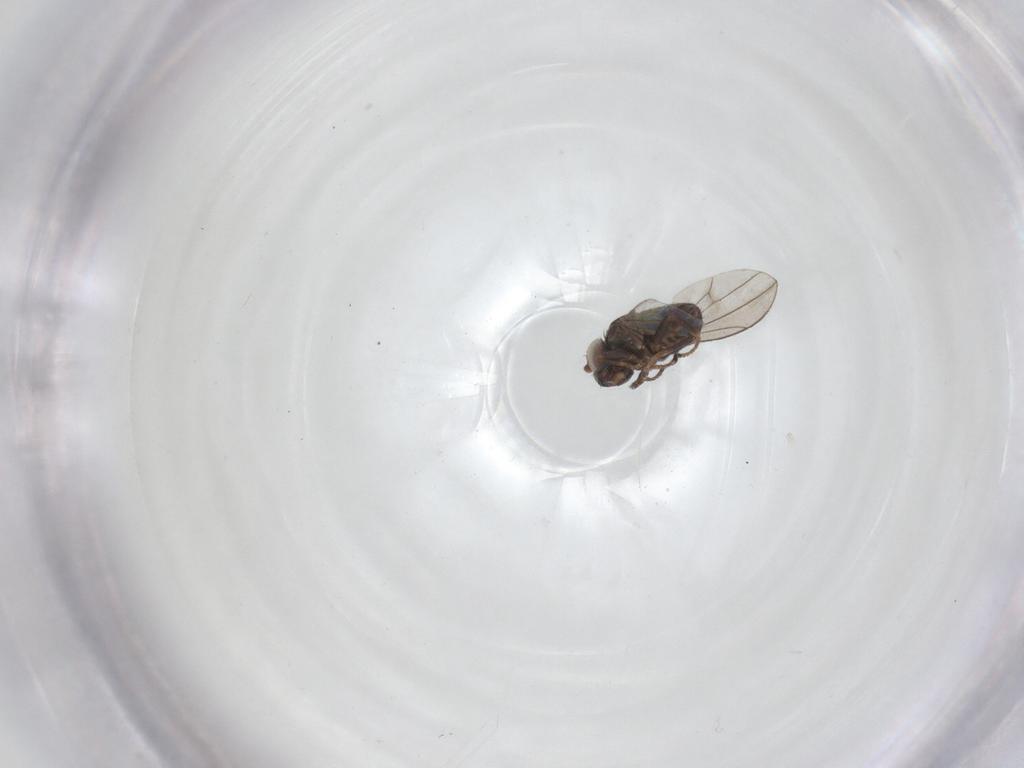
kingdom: Animalia
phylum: Arthropoda
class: Insecta
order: Diptera
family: Ephydridae
